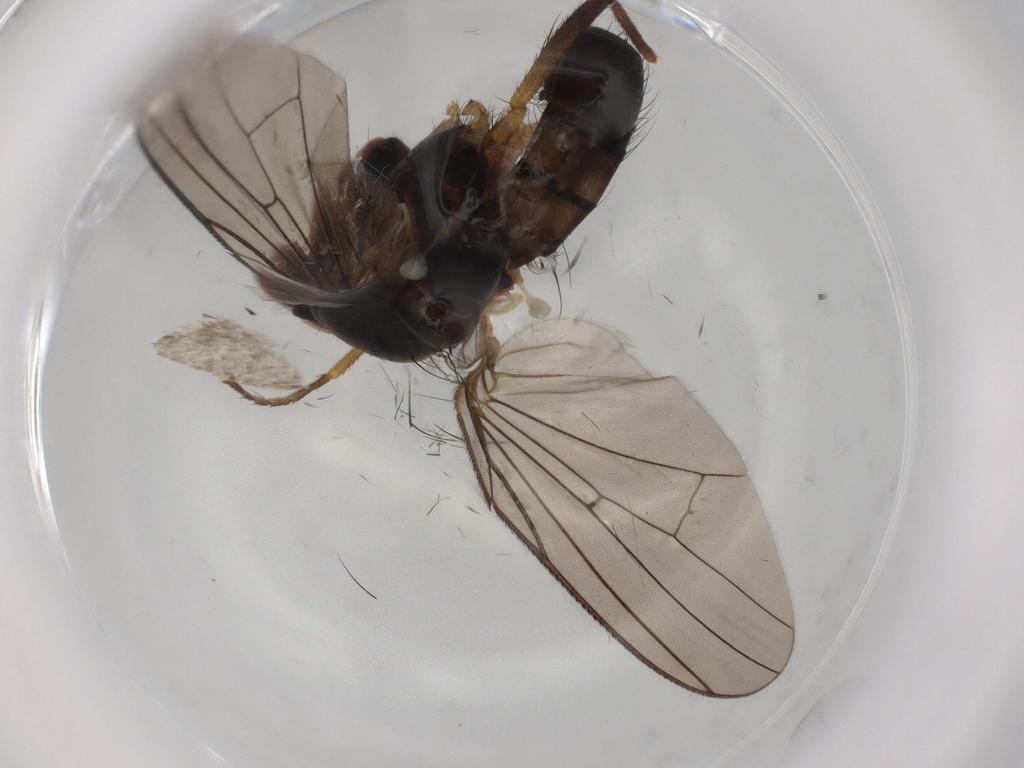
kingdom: Animalia
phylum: Arthropoda
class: Insecta
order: Diptera
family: Anthomyiidae
